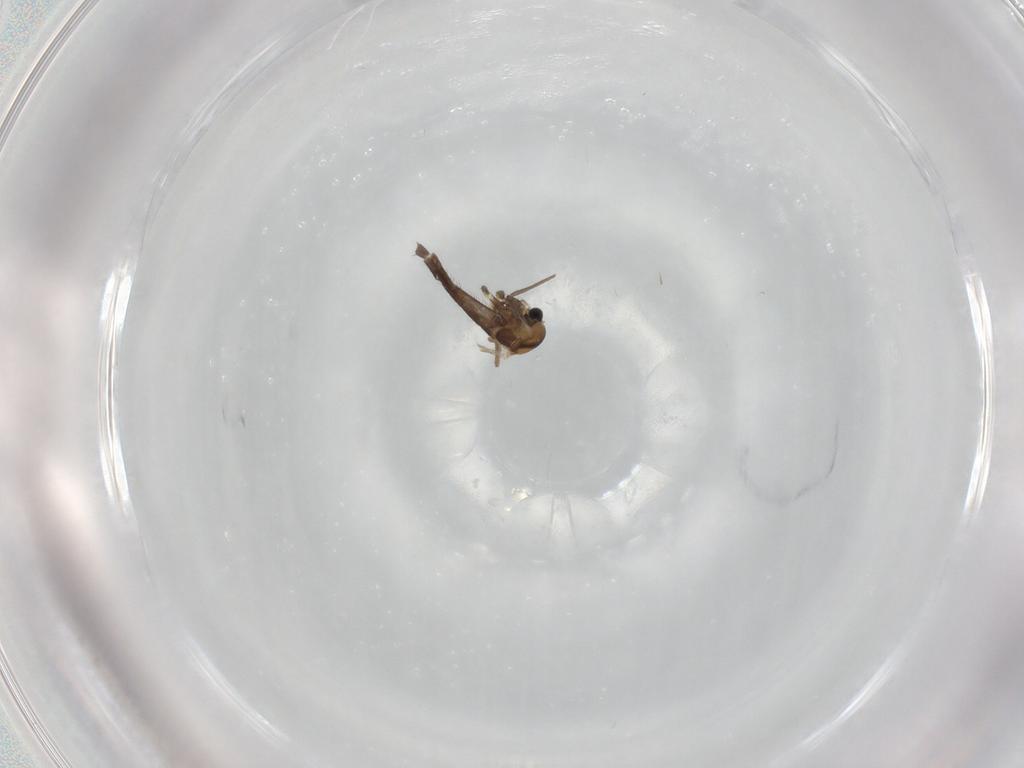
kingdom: Animalia
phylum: Arthropoda
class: Insecta
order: Diptera
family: Chironomidae
